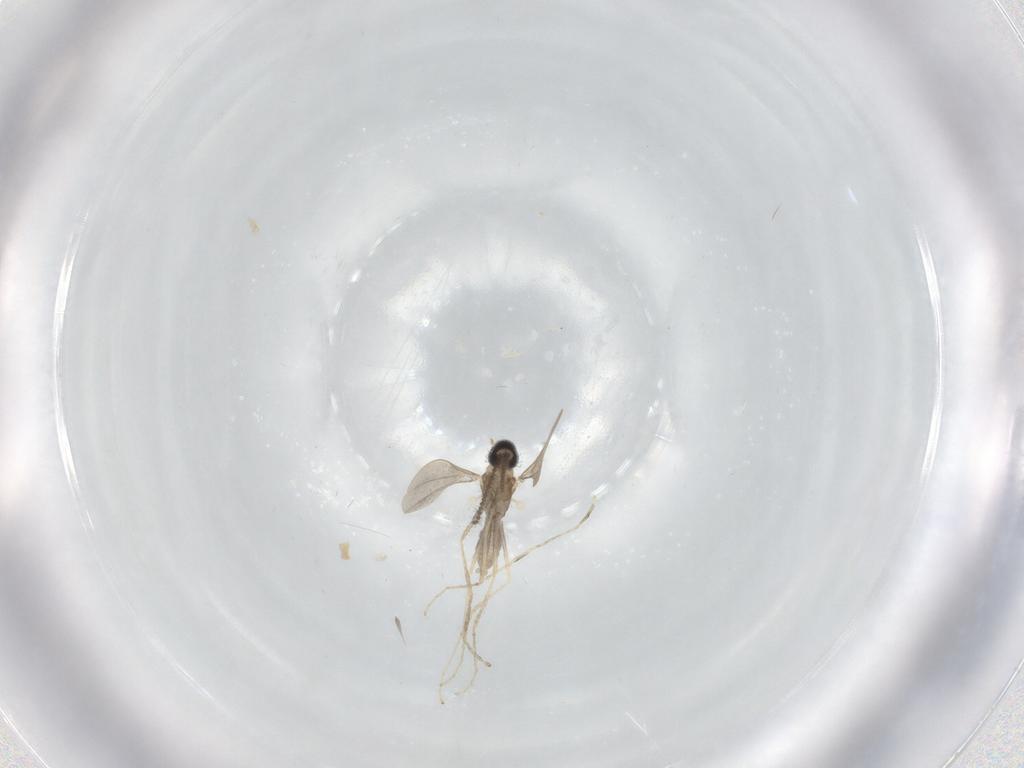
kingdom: Animalia
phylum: Arthropoda
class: Insecta
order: Diptera
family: Cecidomyiidae
